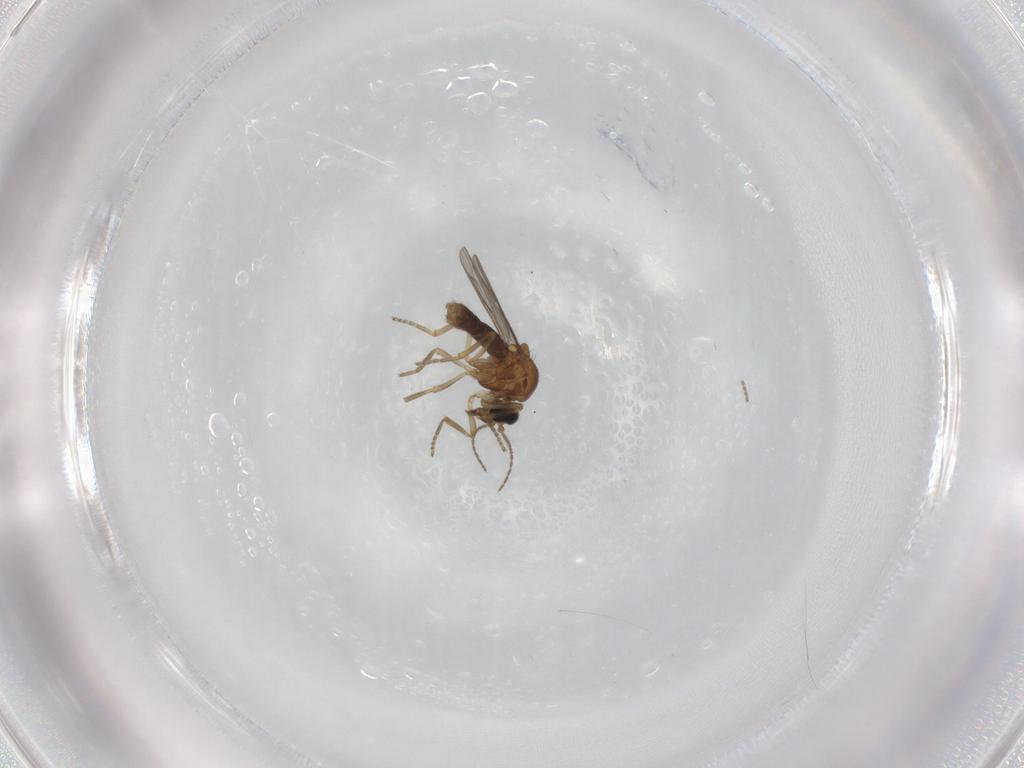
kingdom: Animalia
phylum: Arthropoda
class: Insecta
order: Diptera
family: Ceratopogonidae
